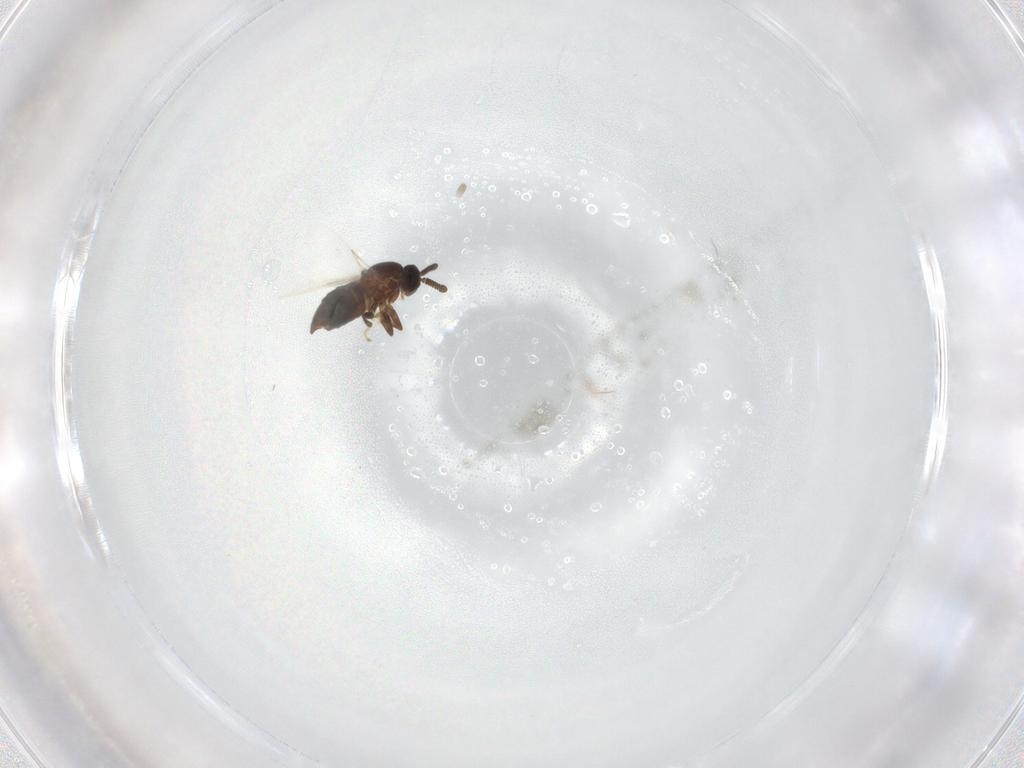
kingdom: Animalia
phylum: Arthropoda
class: Insecta
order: Diptera
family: Scatopsidae
